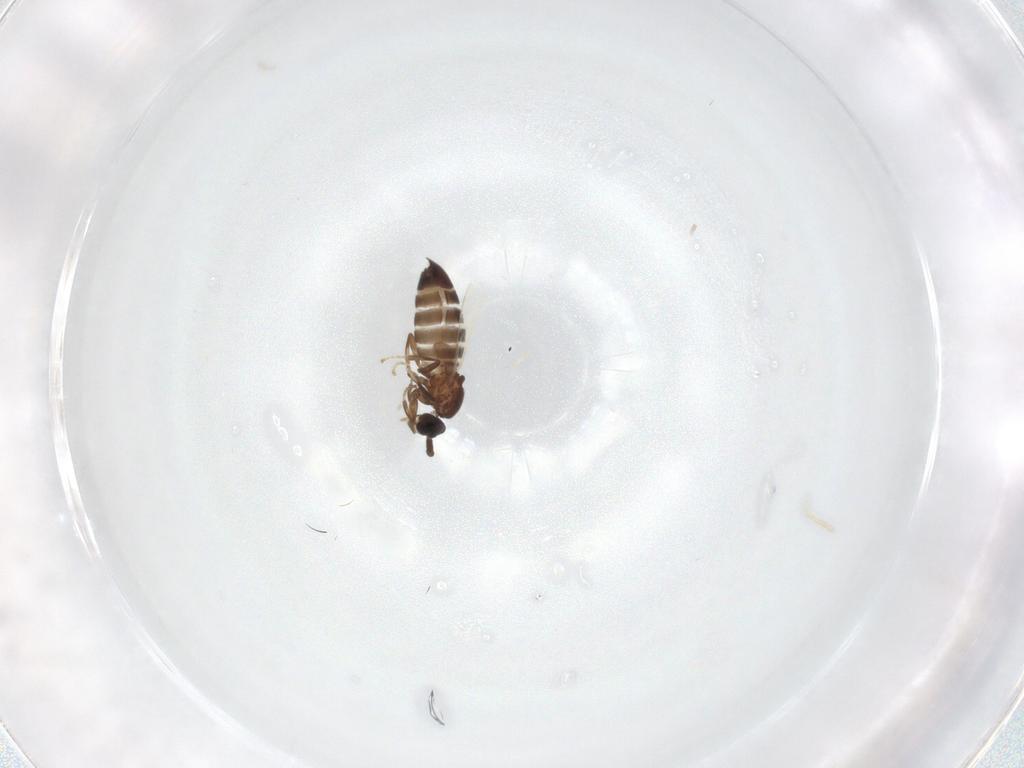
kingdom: Animalia
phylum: Arthropoda
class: Insecta
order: Diptera
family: Scatopsidae
